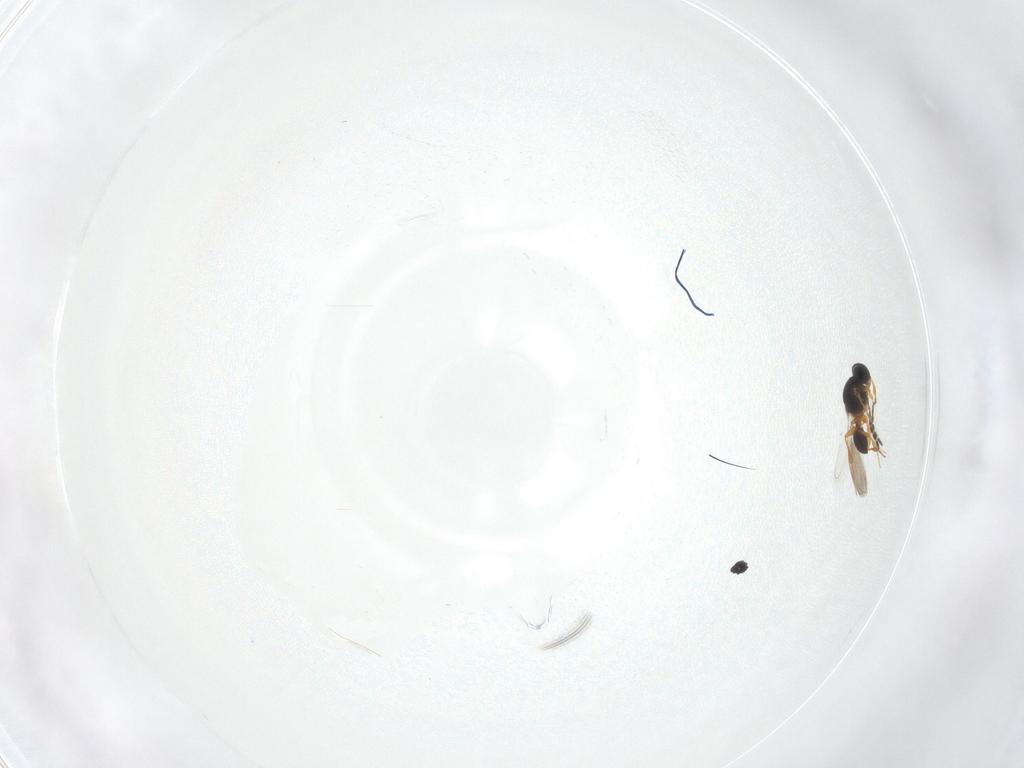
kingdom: Animalia
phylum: Arthropoda
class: Insecta
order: Hymenoptera
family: Platygastridae
